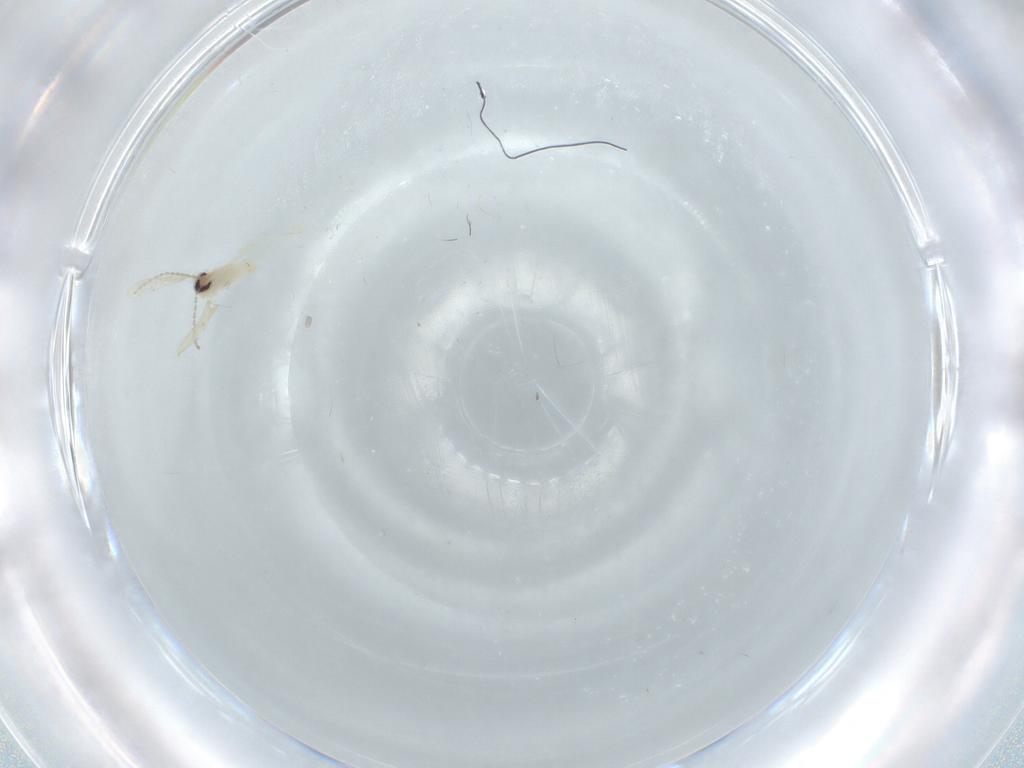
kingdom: Animalia
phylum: Arthropoda
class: Insecta
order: Diptera
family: Cecidomyiidae
